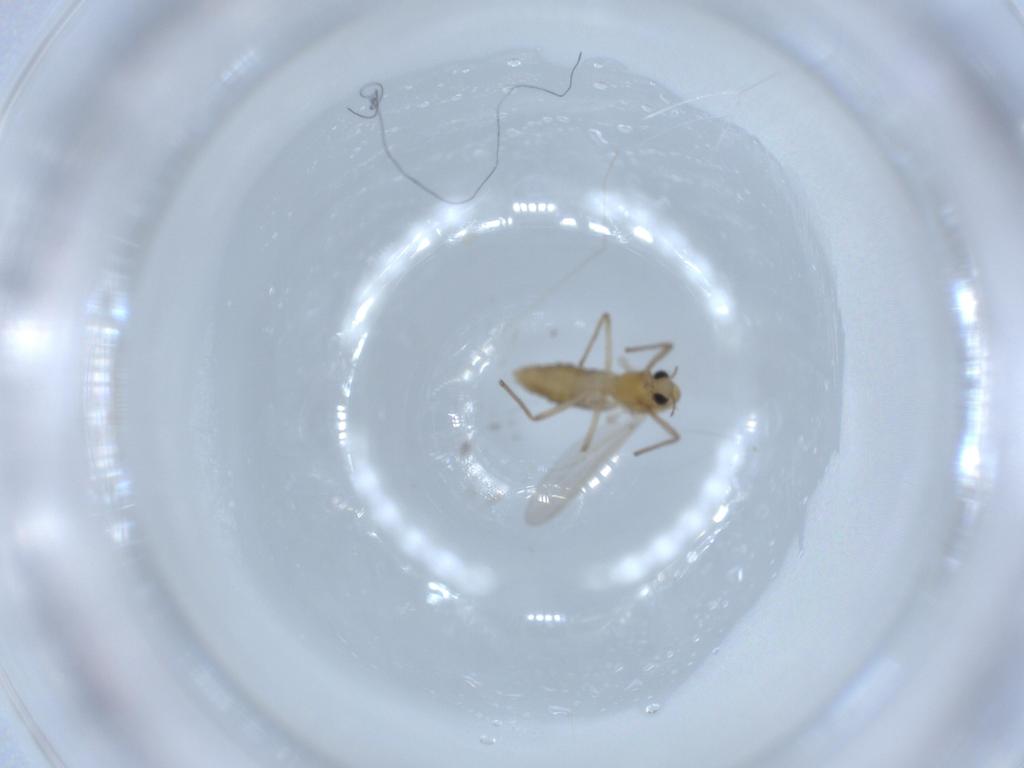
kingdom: Animalia
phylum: Arthropoda
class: Insecta
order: Diptera
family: Chironomidae
